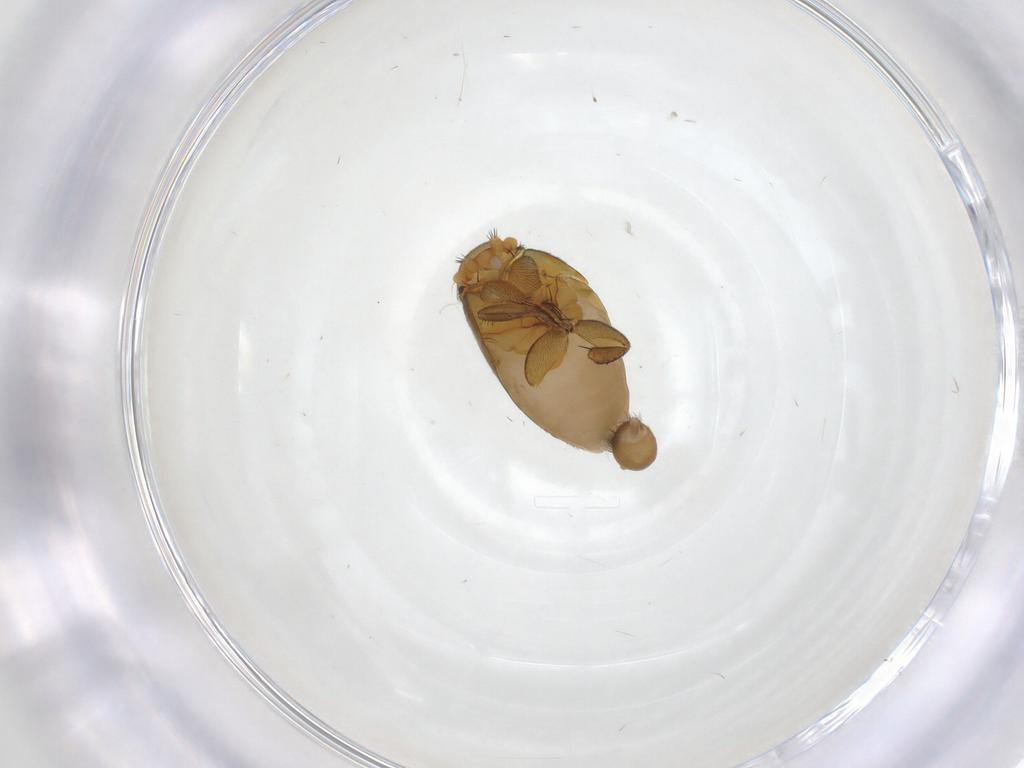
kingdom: Animalia
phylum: Arthropoda
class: Insecta
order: Diptera
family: Phoridae
